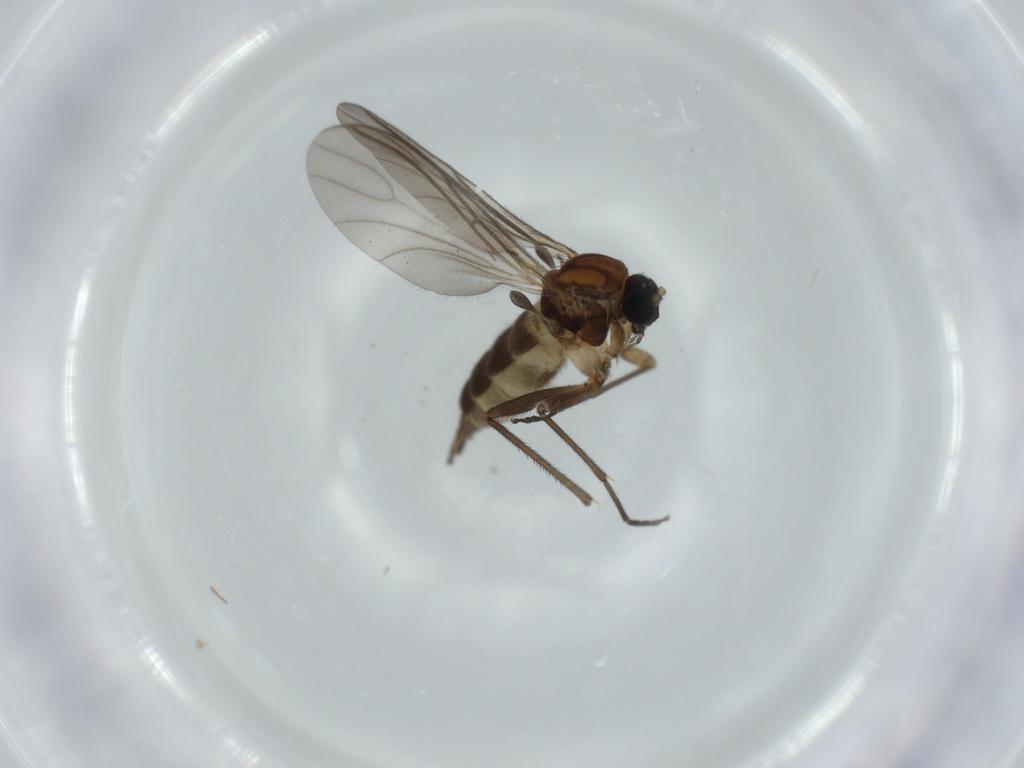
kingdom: Animalia
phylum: Arthropoda
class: Insecta
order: Diptera
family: Sciaridae
